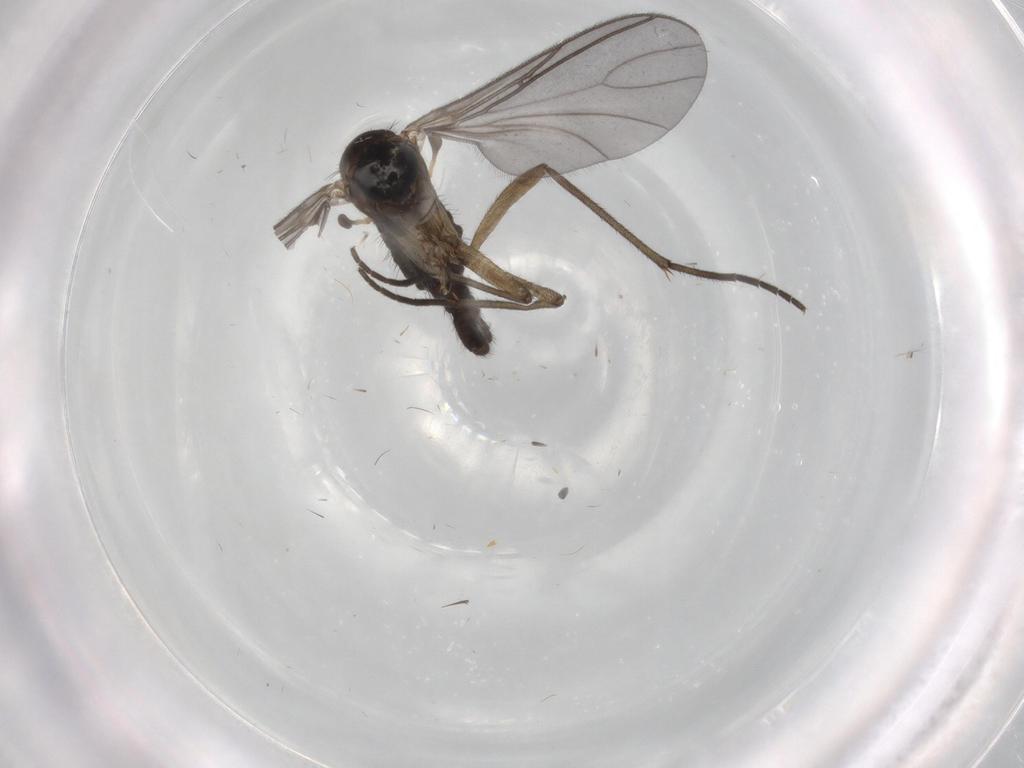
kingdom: Animalia
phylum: Arthropoda
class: Insecta
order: Diptera
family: Sciaridae
